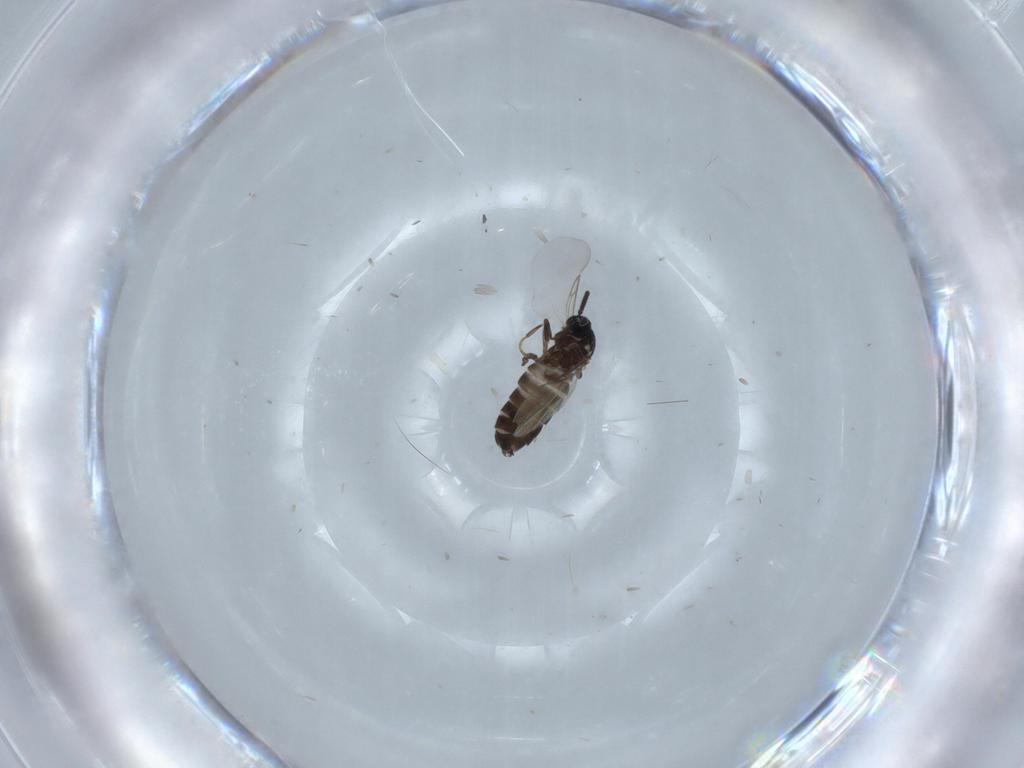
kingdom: Animalia
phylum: Arthropoda
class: Insecta
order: Diptera
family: Scatopsidae
